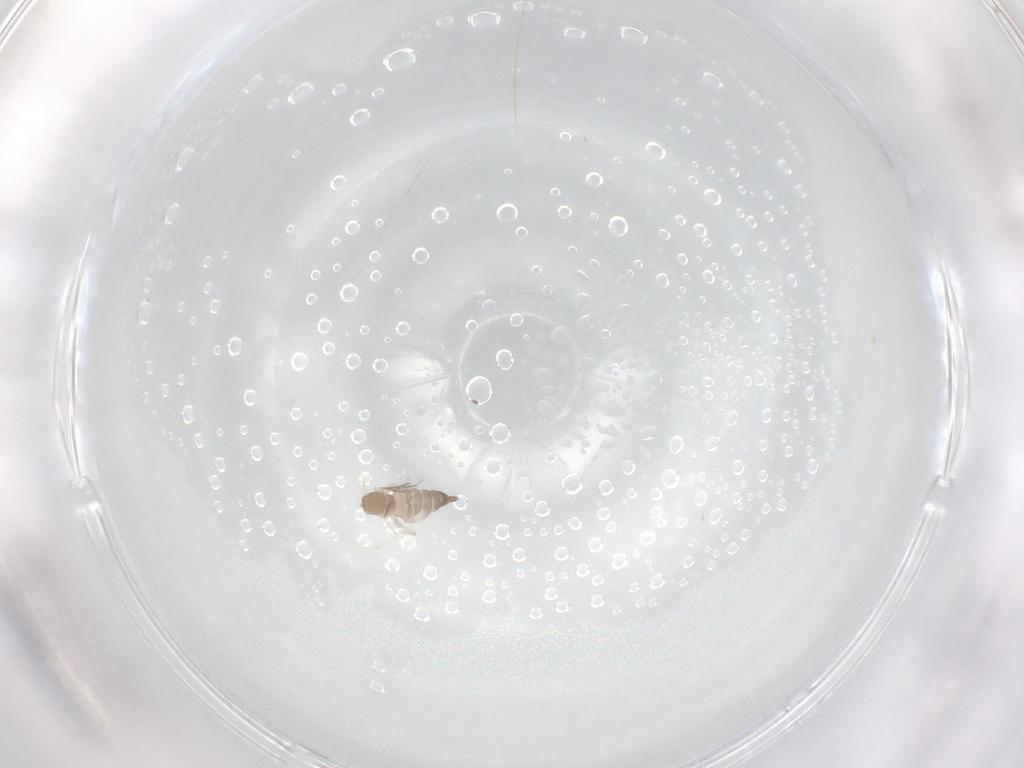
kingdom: Animalia
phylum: Arthropoda
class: Insecta
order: Diptera
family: Cecidomyiidae
